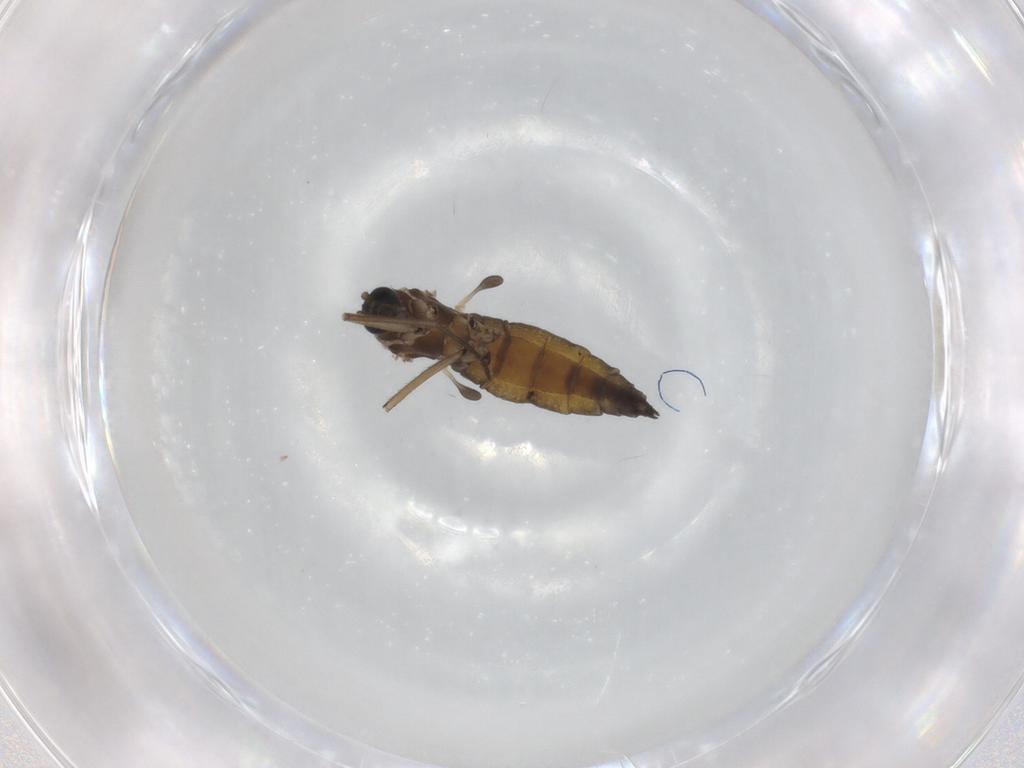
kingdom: Animalia
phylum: Arthropoda
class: Insecta
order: Diptera
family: Sciaridae
